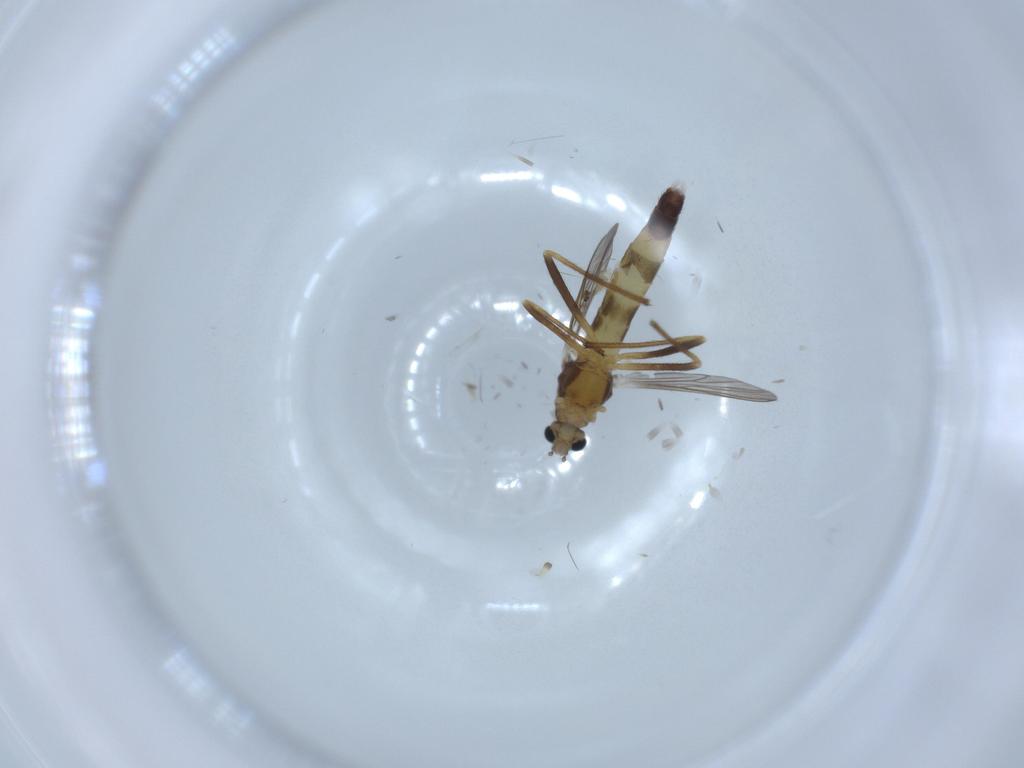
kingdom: Animalia
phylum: Arthropoda
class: Insecta
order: Diptera
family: Chironomidae
